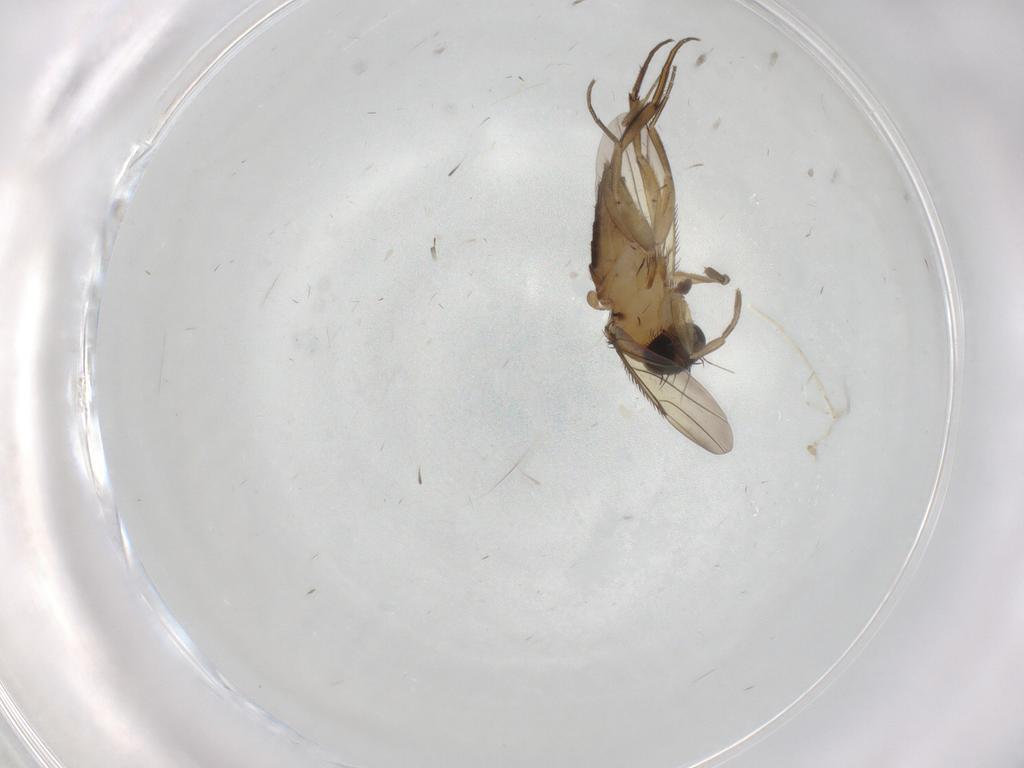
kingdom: Animalia
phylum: Arthropoda
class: Insecta
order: Diptera
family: Phoridae
